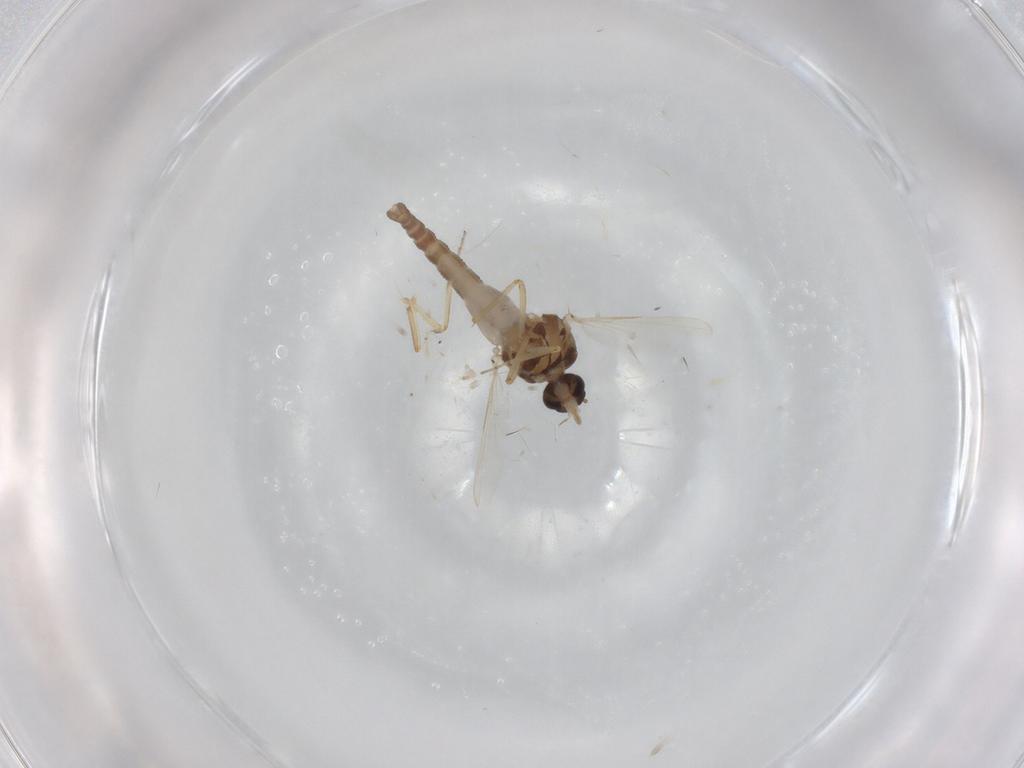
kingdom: Animalia
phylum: Arthropoda
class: Insecta
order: Diptera
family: Ceratopogonidae
